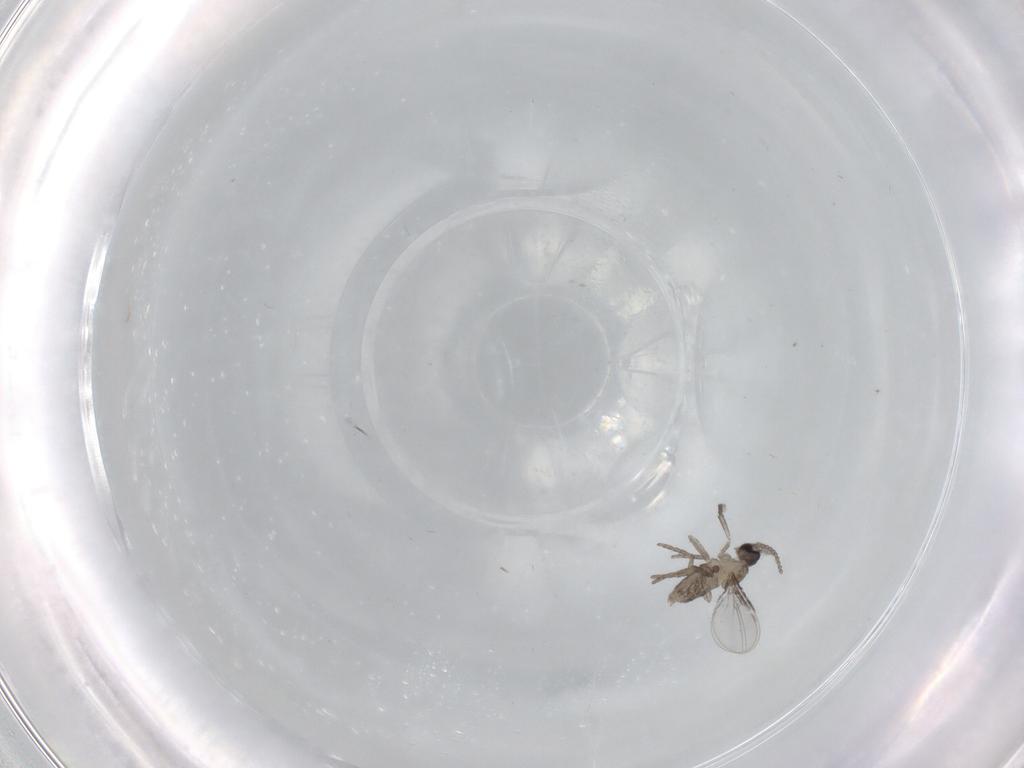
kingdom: Animalia
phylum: Arthropoda
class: Insecta
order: Diptera
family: Cecidomyiidae
